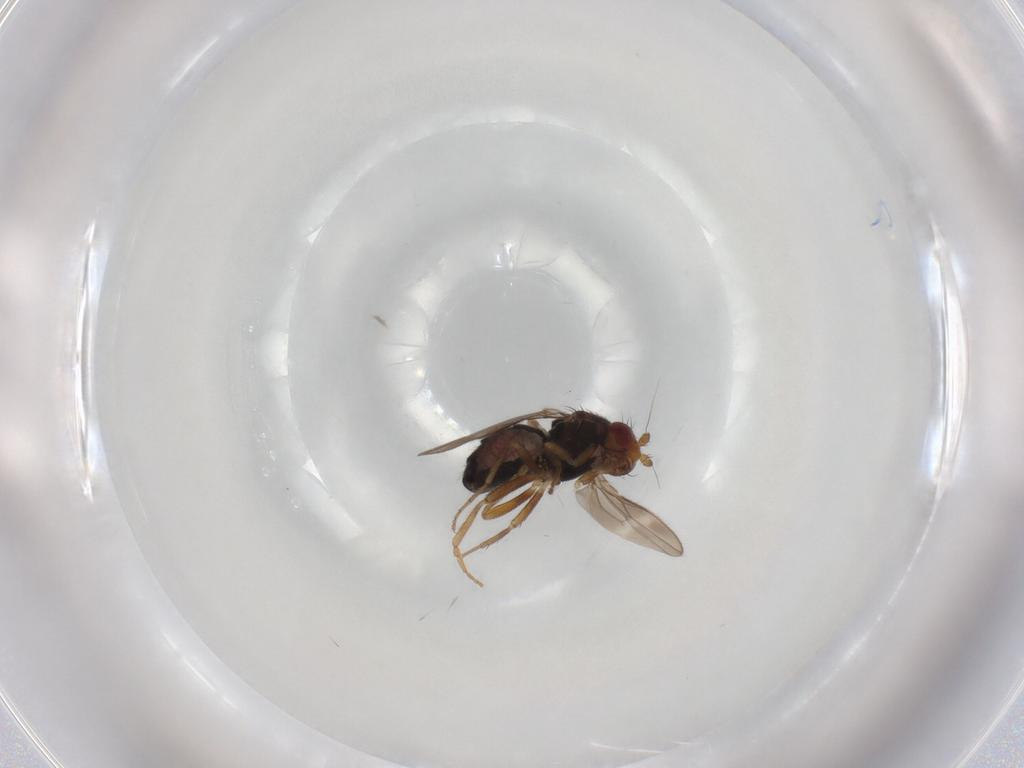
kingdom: Animalia
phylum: Arthropoda
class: Insecta
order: Diptera
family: Sphaeroceridae
